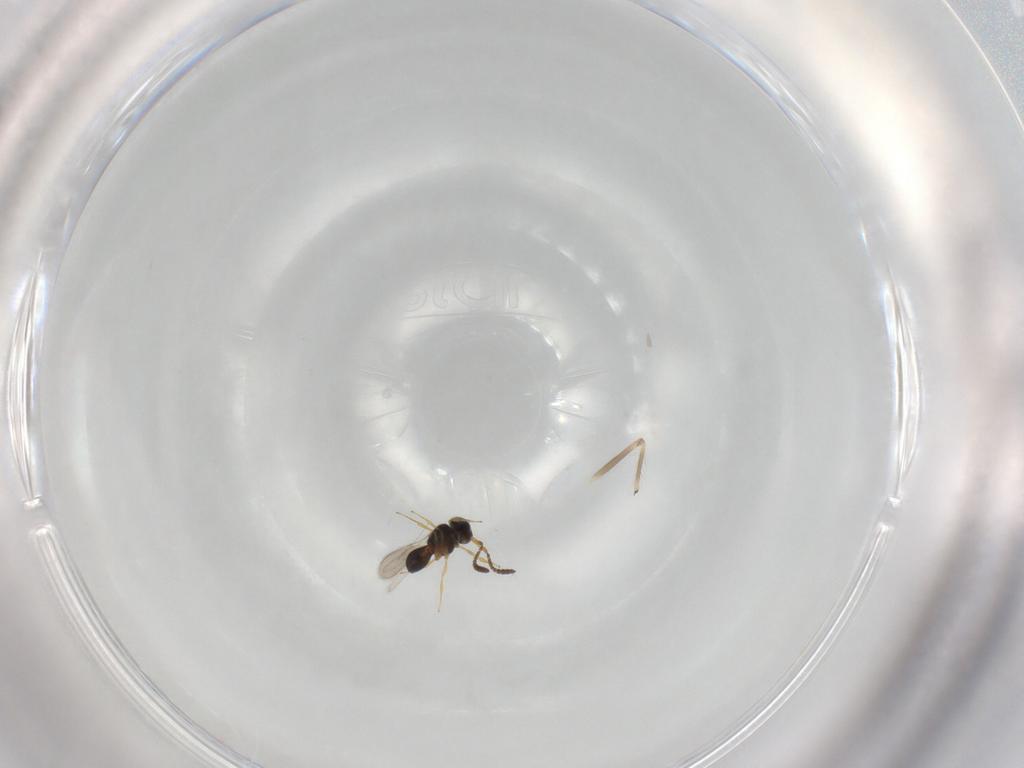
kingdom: Animalia
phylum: Arthropoda
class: Insecta
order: Hymenoptera
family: Scelionidae
